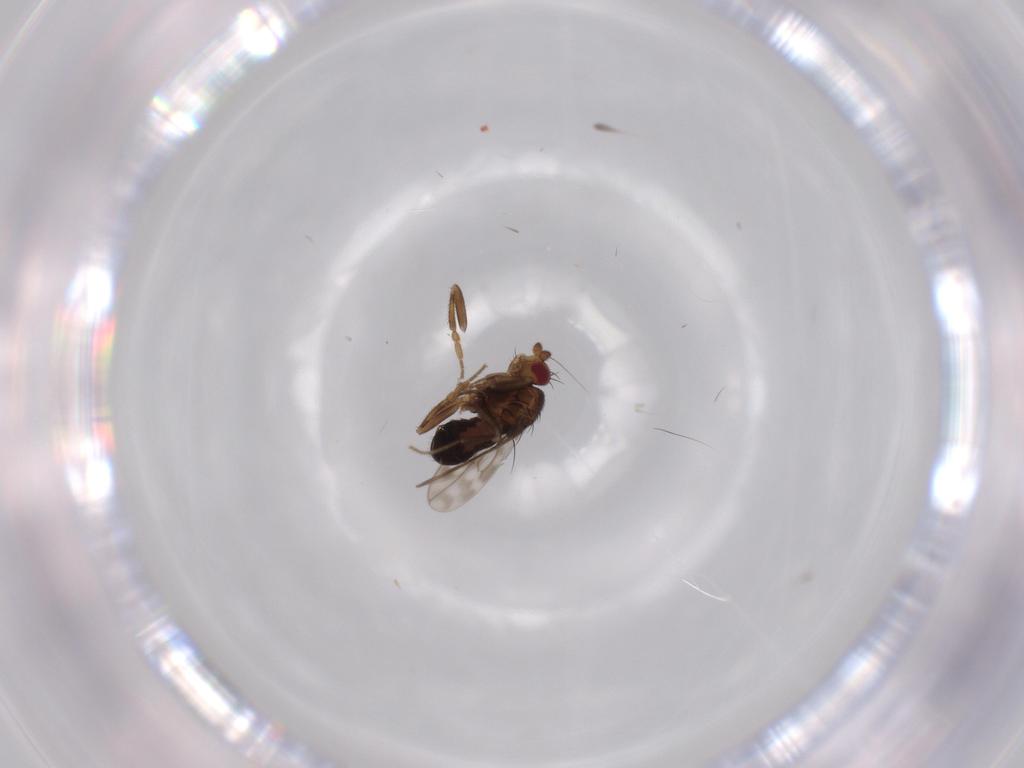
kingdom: Animalia
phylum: Arthropoda
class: Insecta
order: Diptera
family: Sphaeroceridae
